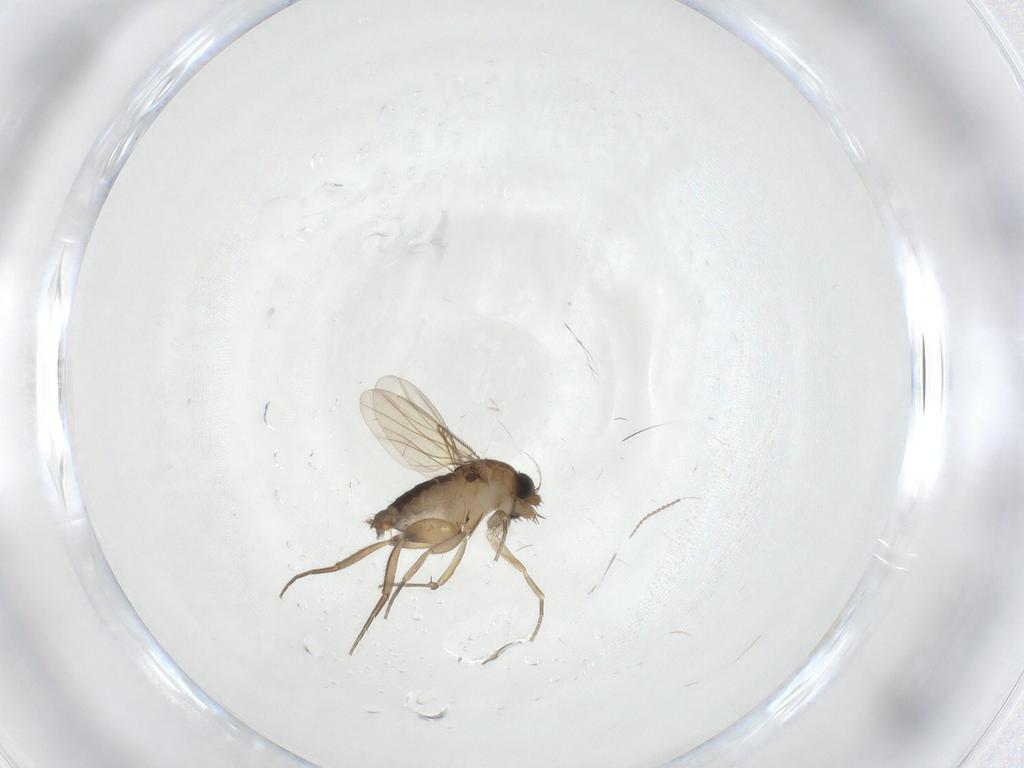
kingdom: Animalia
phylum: Arthropoda
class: Insecta
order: Diptera
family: Phoridae
